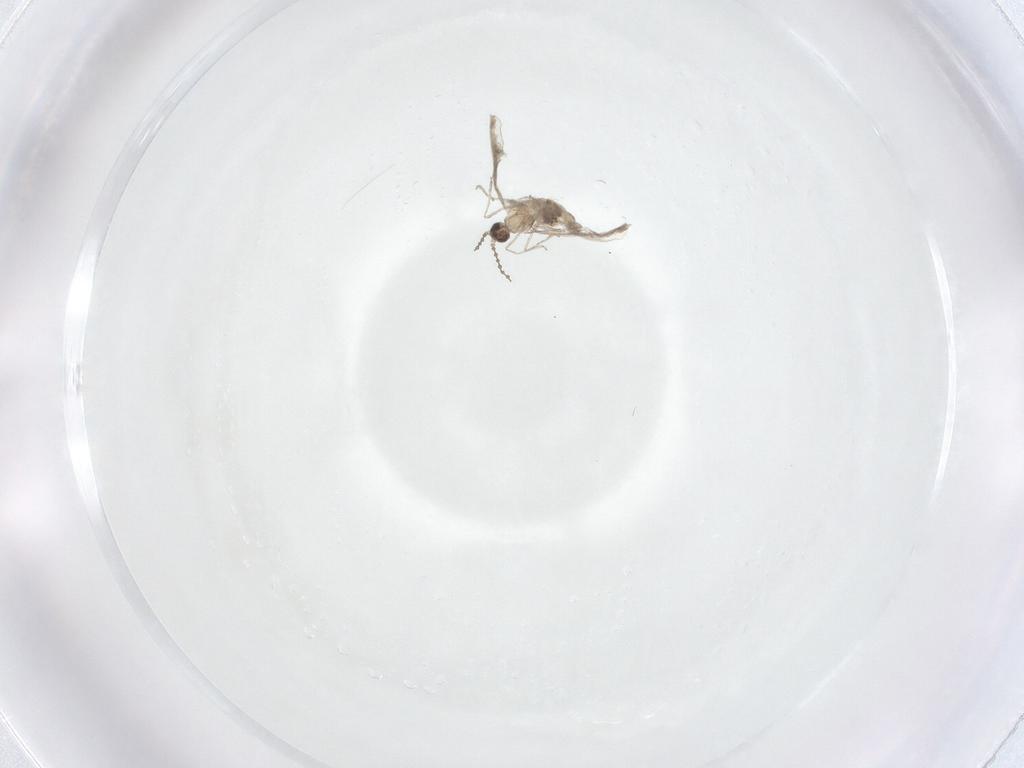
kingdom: Animalia
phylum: Arthropoda
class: Insecta
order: Diptera
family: Cecidomyiidae
